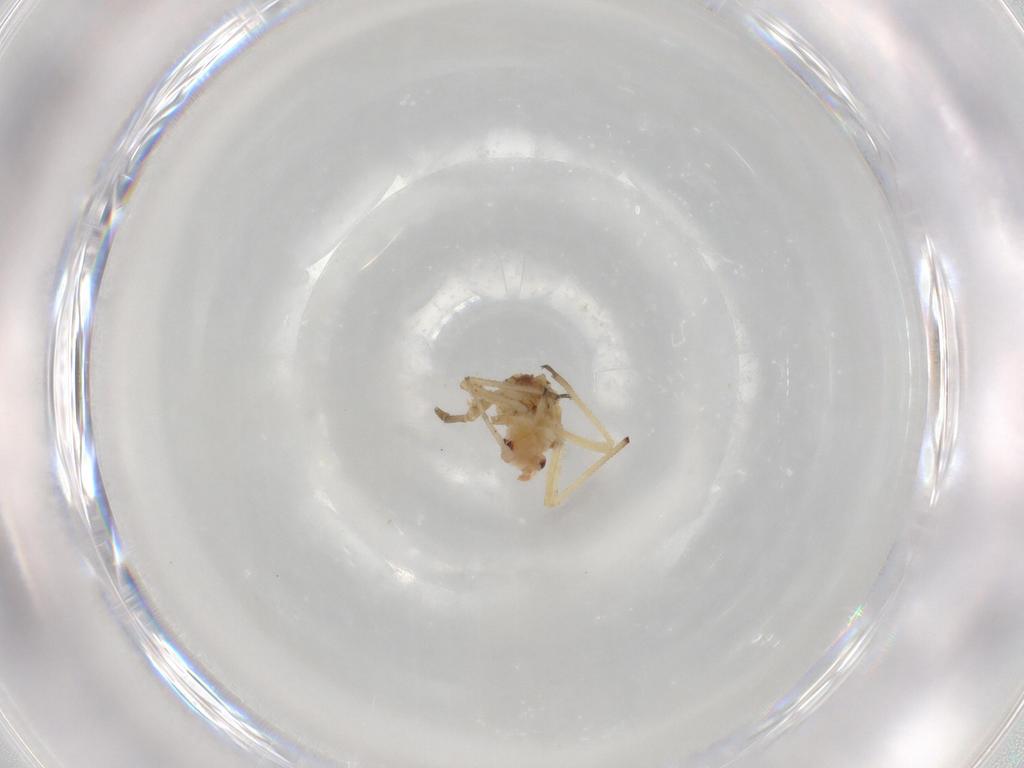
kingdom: Animalia
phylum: Arthropoda
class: Insecta
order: Hemiptera
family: Aphididae
